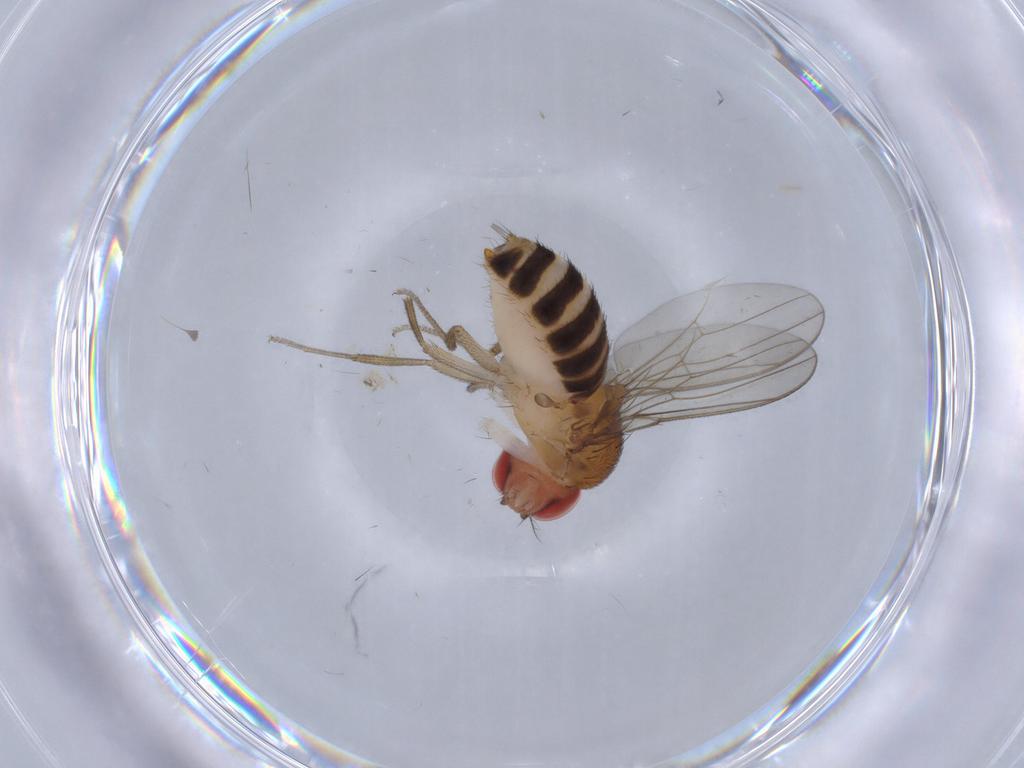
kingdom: Animalia
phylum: Arthropoda
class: Insecta
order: Diptera
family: Drosophilidae
